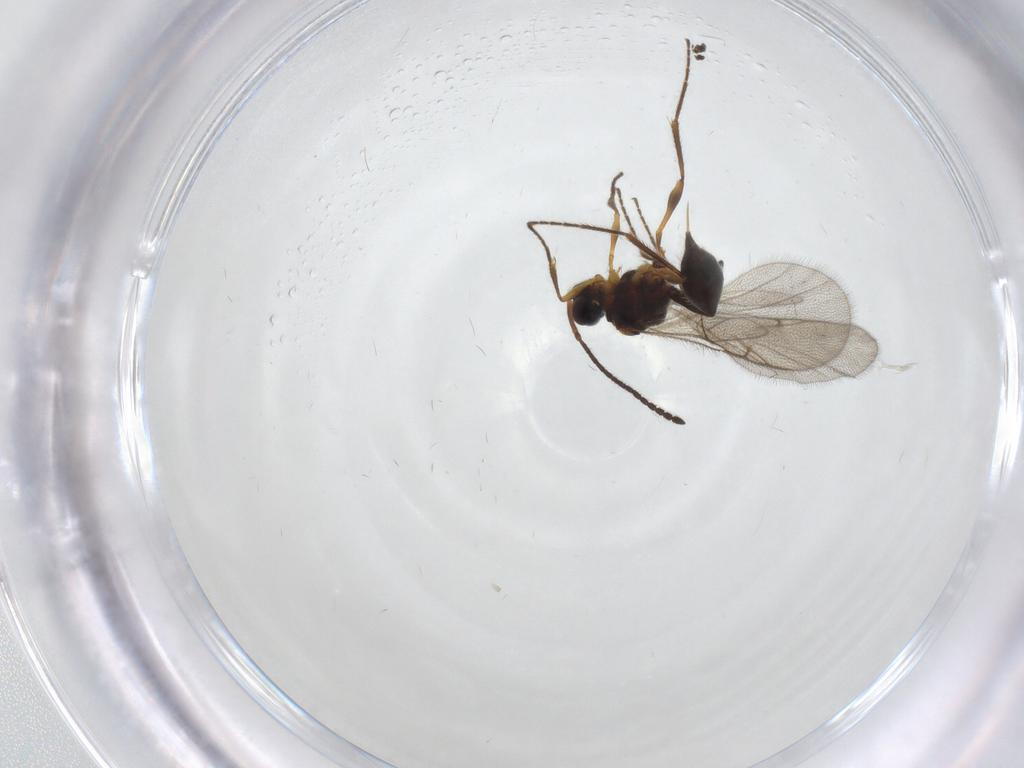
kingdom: Animalia
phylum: Arthropoda
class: Insecta
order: Hymenoptera
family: Diapriidae
